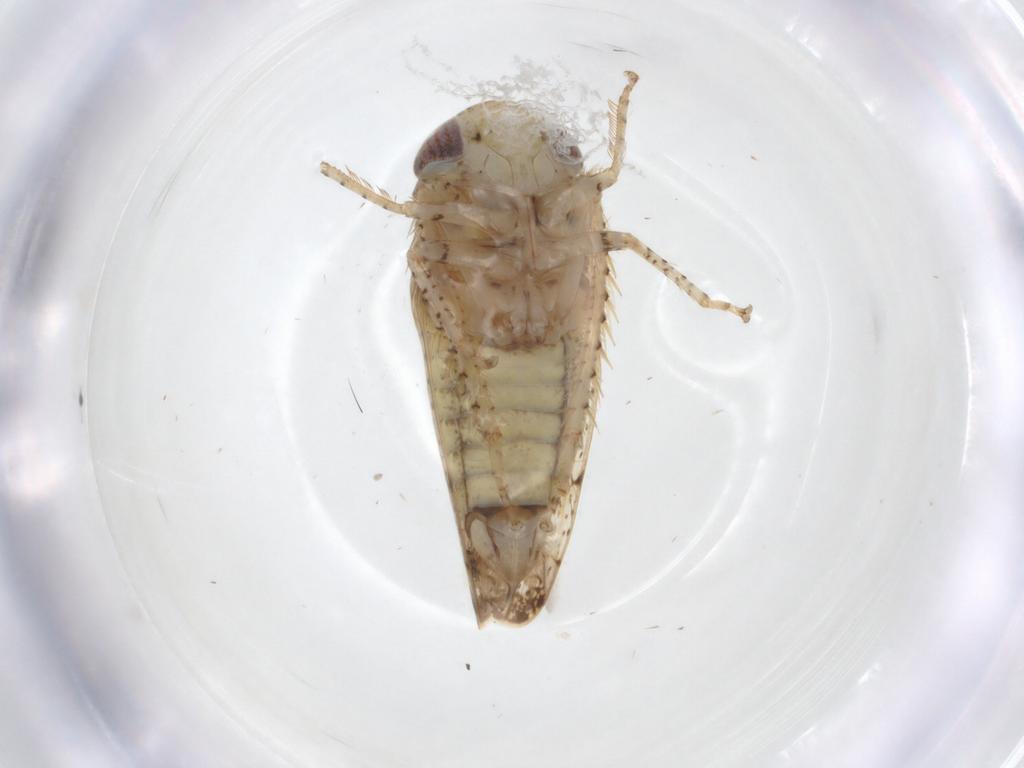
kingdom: Animalia
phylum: Arthropoda
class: Insecta
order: Hemiptera
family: Cicadellidae
